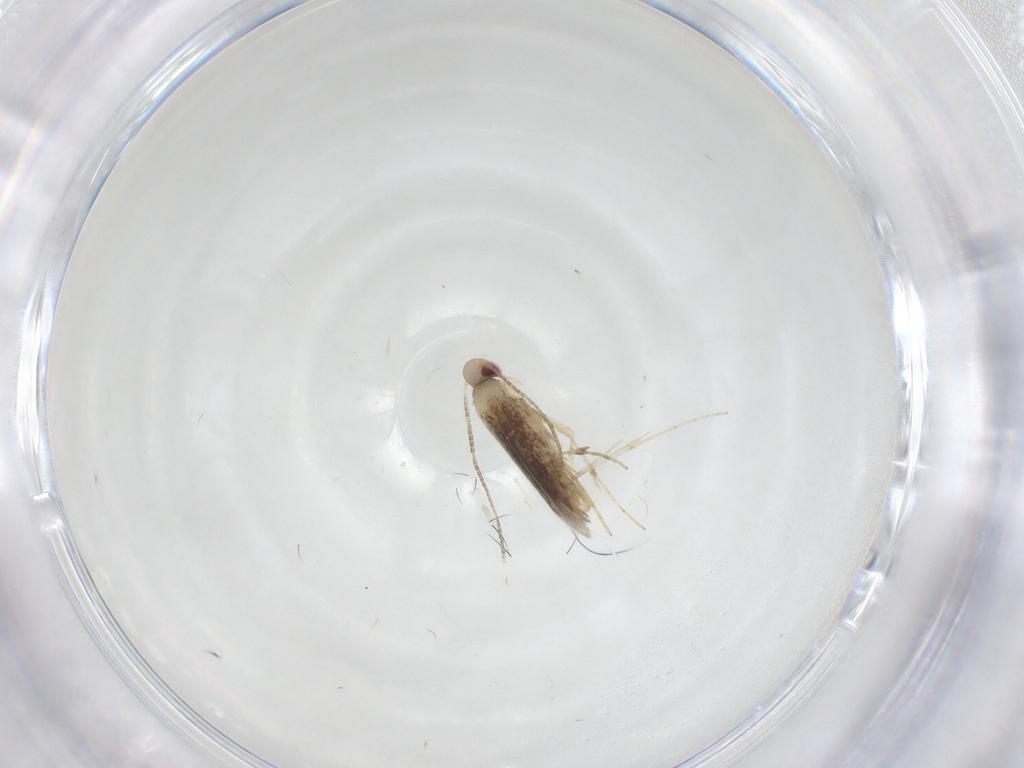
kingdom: Animalia
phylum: Arthropoda
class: Insecta
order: Lepidoptera
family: Gracillariidae
